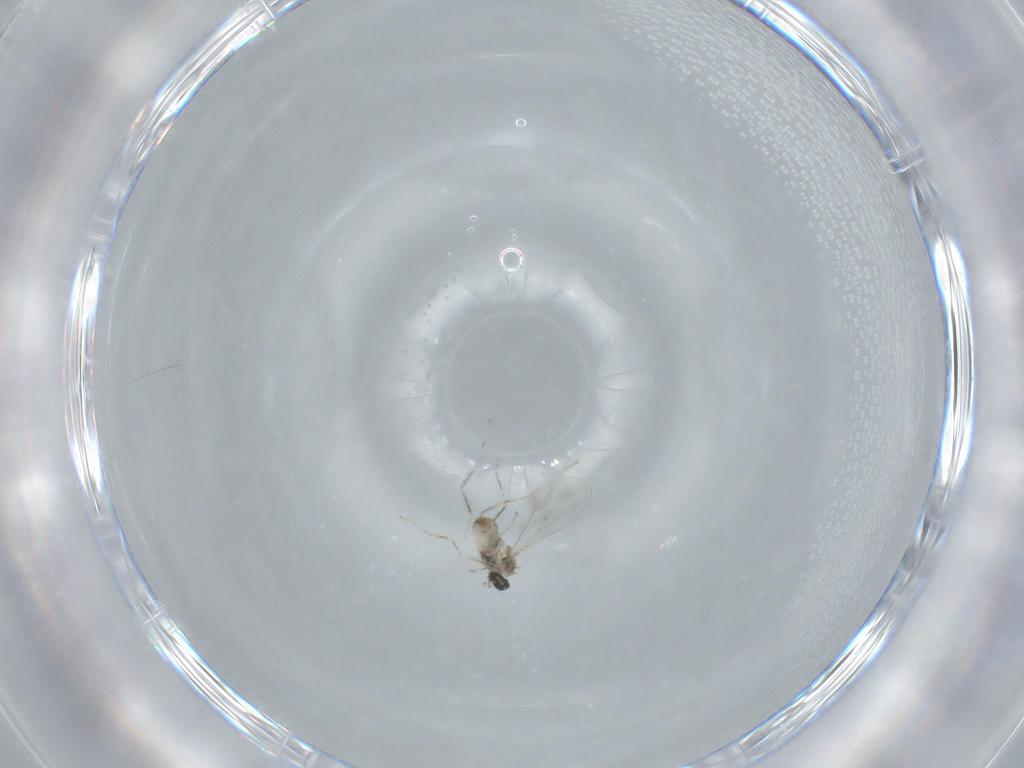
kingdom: Animalia
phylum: Arthropoda
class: Insecta
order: Diptera
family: Cecidomyiidae
